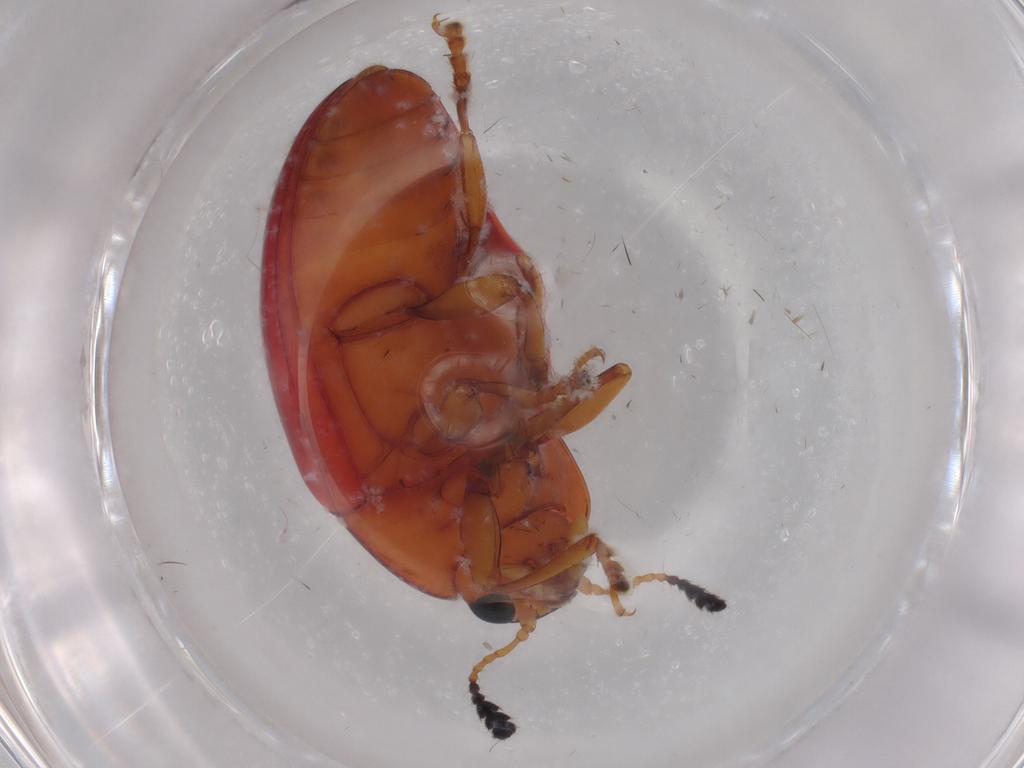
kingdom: Animalia
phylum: Arthropoda
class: Insecta
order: Coleoptera
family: Erotylidae
